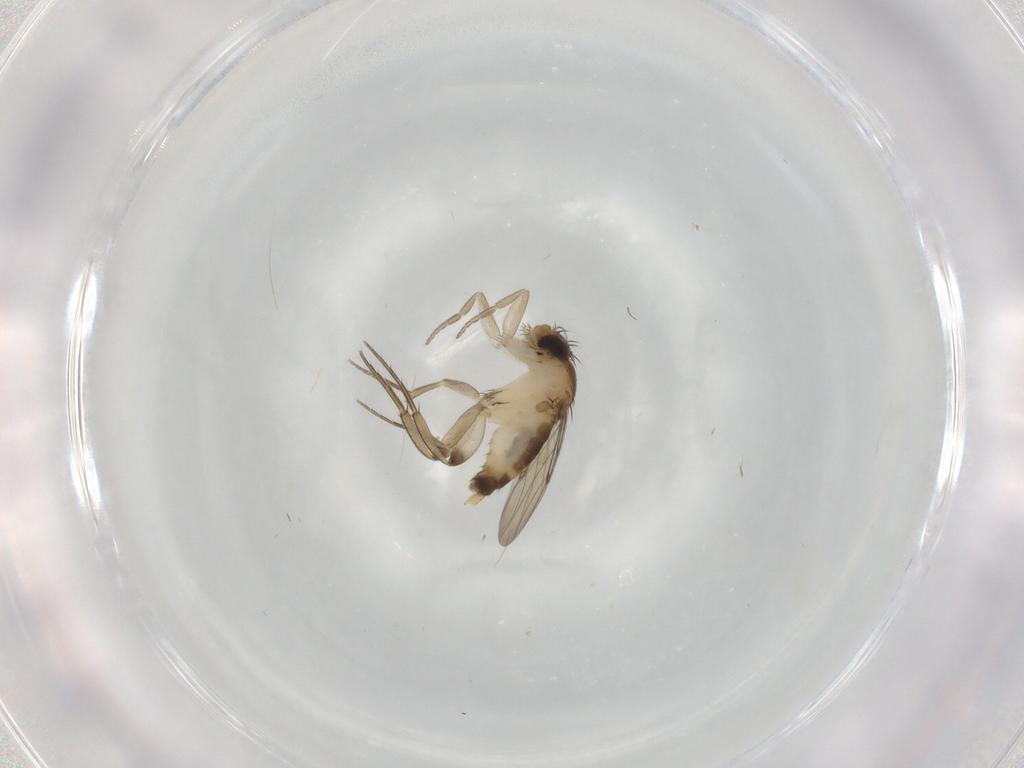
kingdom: Animalia
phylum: Arthropoda
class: Insecta
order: Diptera
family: Phoridae
